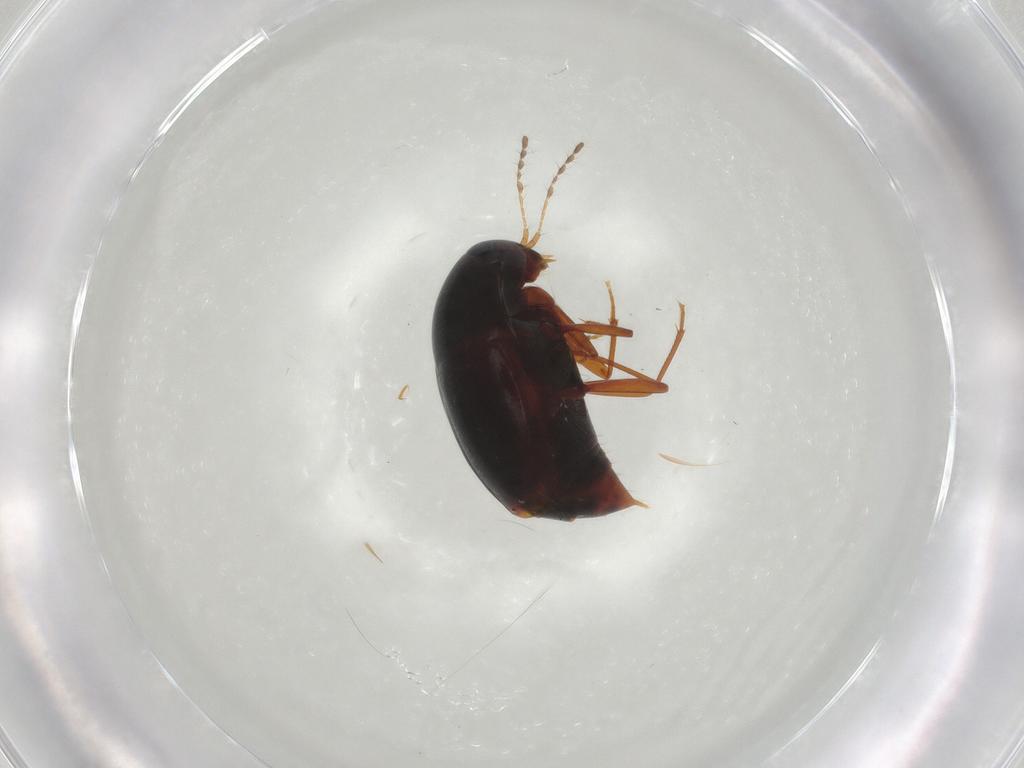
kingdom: Animalia
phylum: Arthropoda
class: Insecta
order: Coleoptera
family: Staphylinidae
